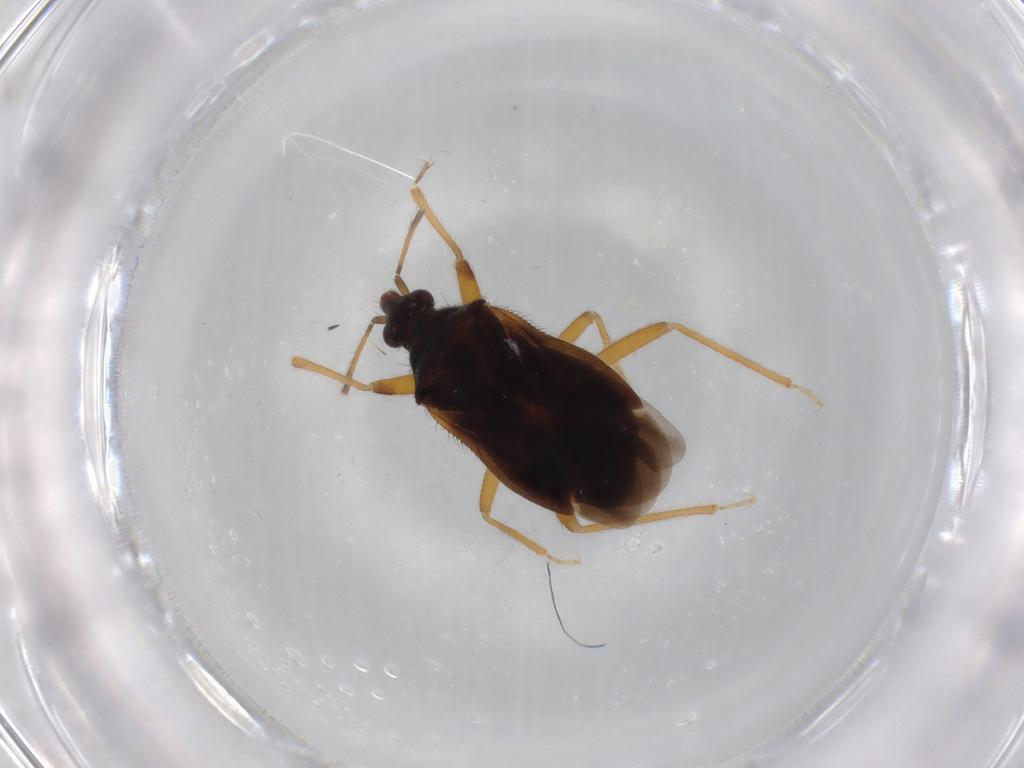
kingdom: Animalia
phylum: Arthropoda
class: Insecta
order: Hemiptera
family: Anthocoridae
